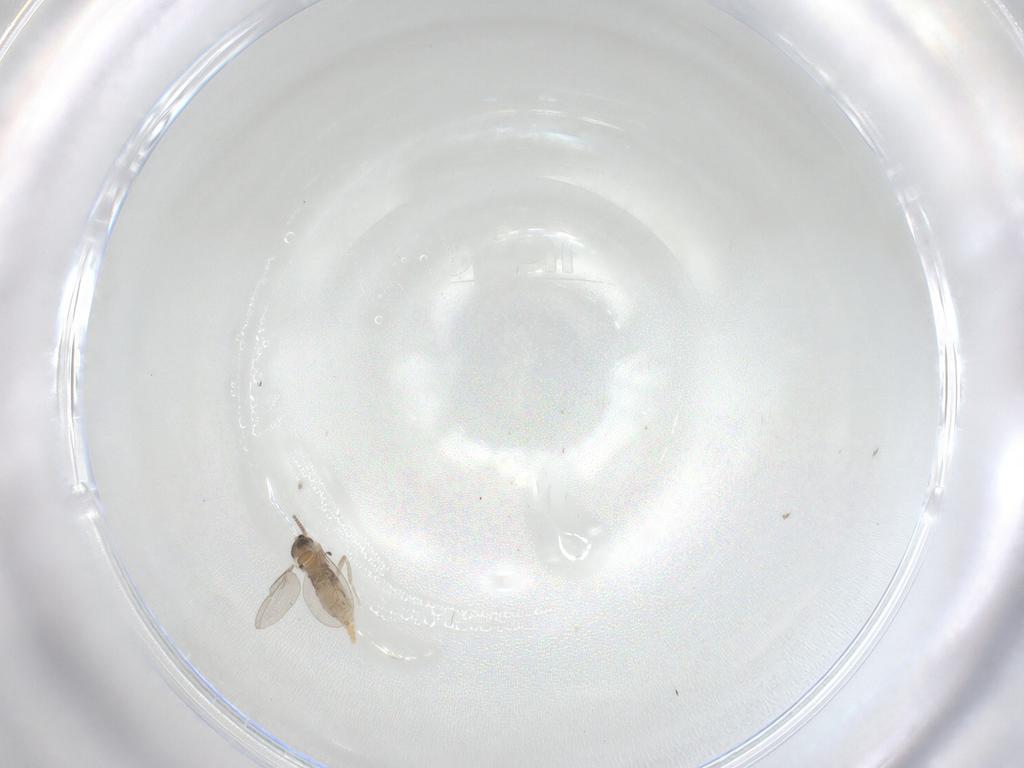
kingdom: Animalia
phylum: Arthropoda
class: Insecta
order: Diptera
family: Cecidomyiidae
